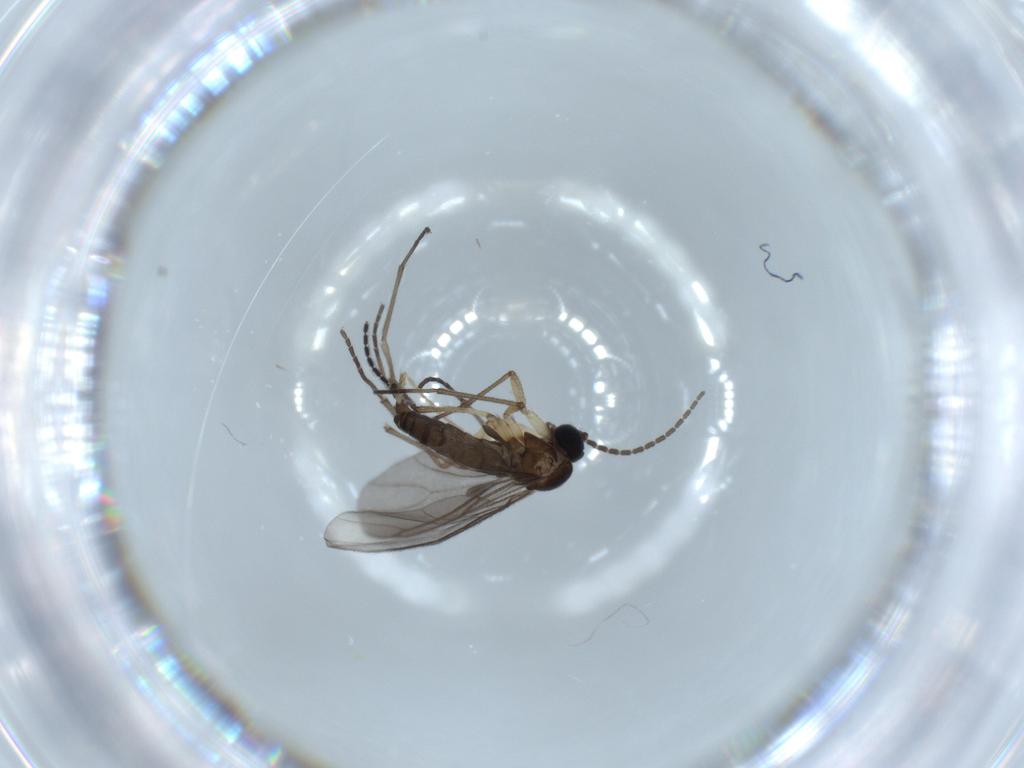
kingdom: Animalia
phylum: Arthropoda
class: Insecta
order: Diptera
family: Sciaridae
